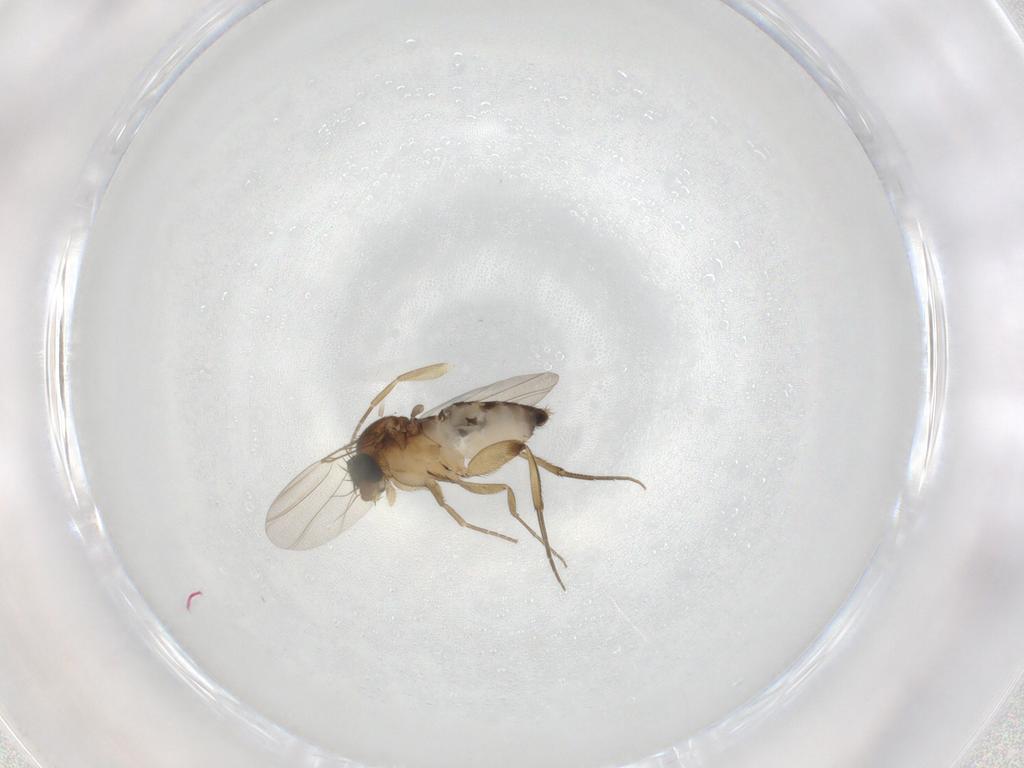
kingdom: Animalia
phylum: Arthropoda
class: Insecta
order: Diptera
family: Phoridae
